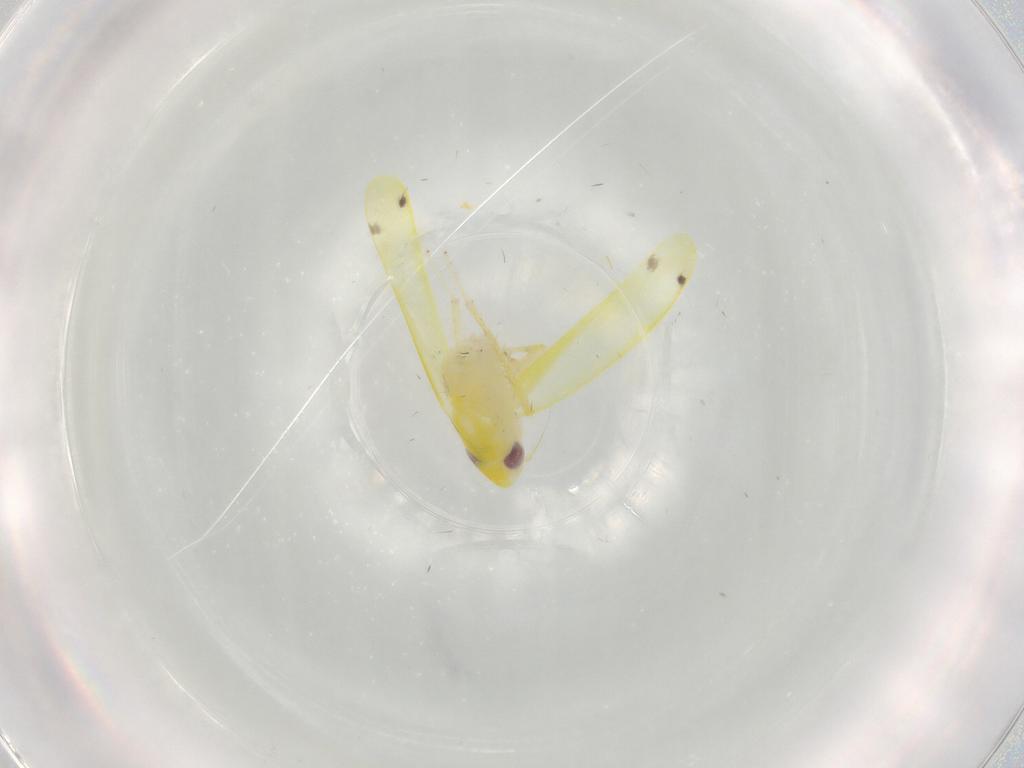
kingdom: Animalia
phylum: Arthropoda
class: Insecta
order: Hemiptera
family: Cicadellidae
